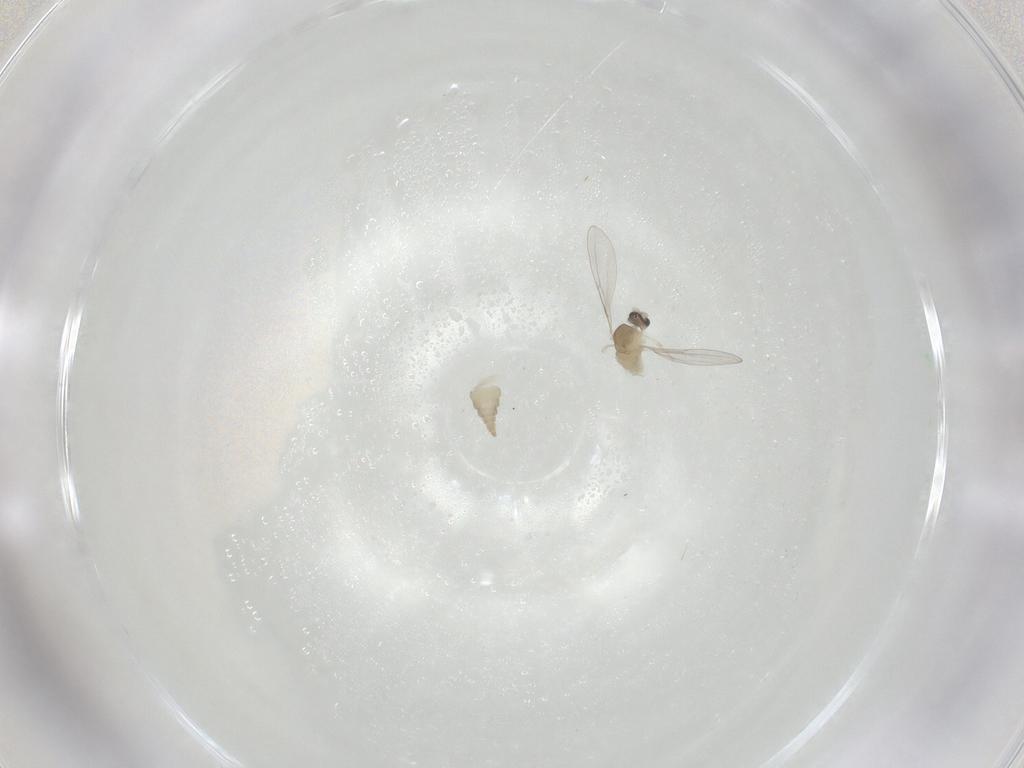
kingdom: Animalia
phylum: Arthropoda
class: Insecta
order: Diptera
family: Cecidomyiidae
